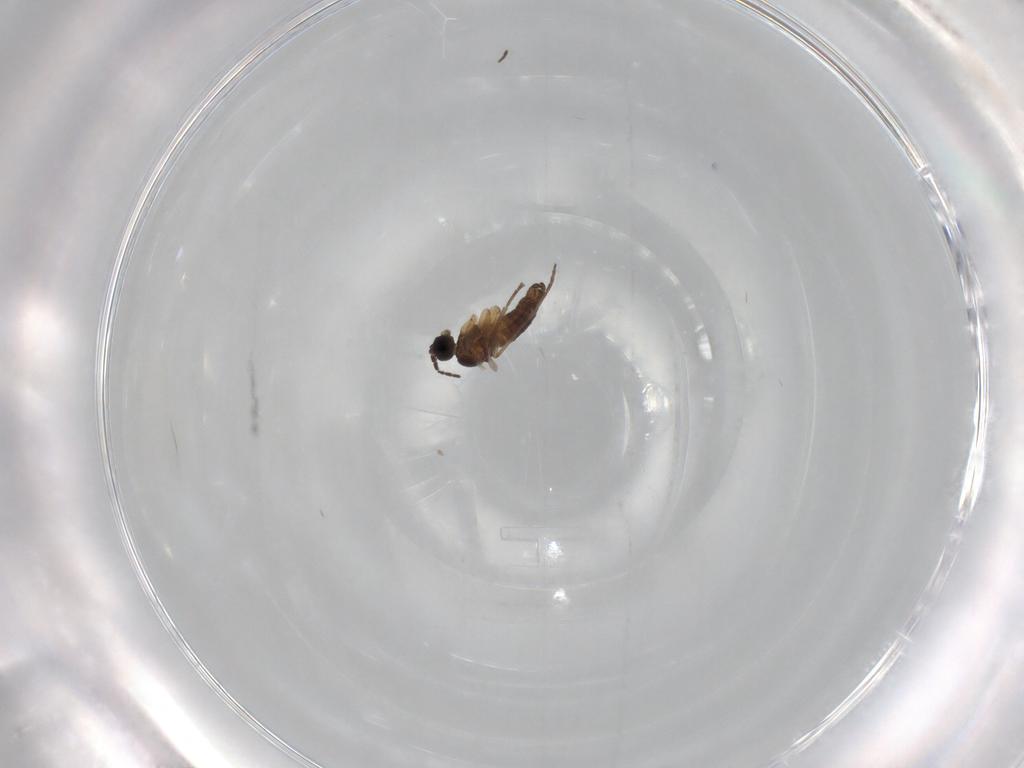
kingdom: Animalia
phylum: Arthropoda
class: Insecta
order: Diptera
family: Sciaridae
